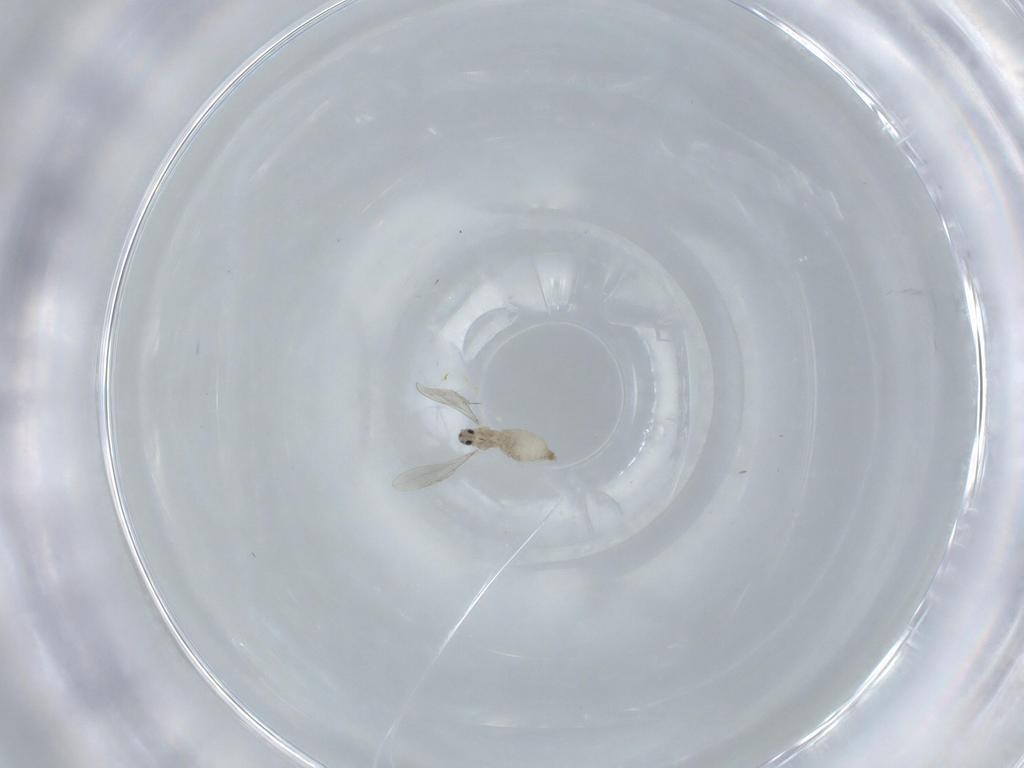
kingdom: Animalia
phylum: Arthropoda
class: Insecta
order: Diptera
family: Cecidomyiidae
